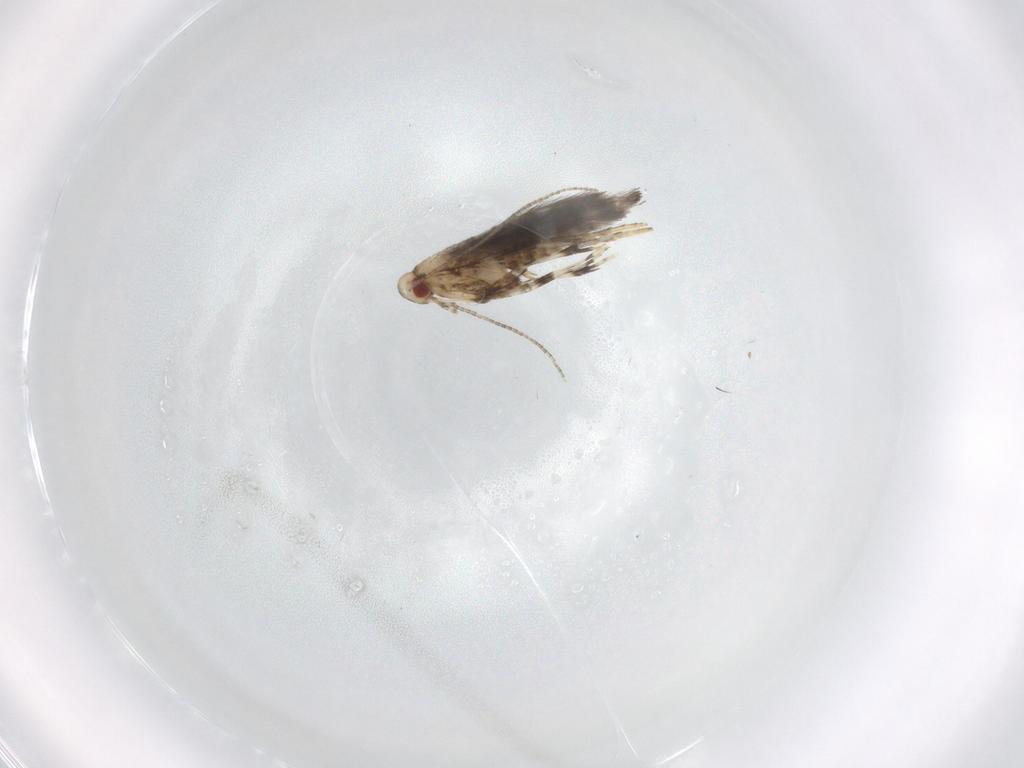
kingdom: Animalia
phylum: Arthropoda
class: Insecta
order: Lepidoptera
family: Gracillariidae
